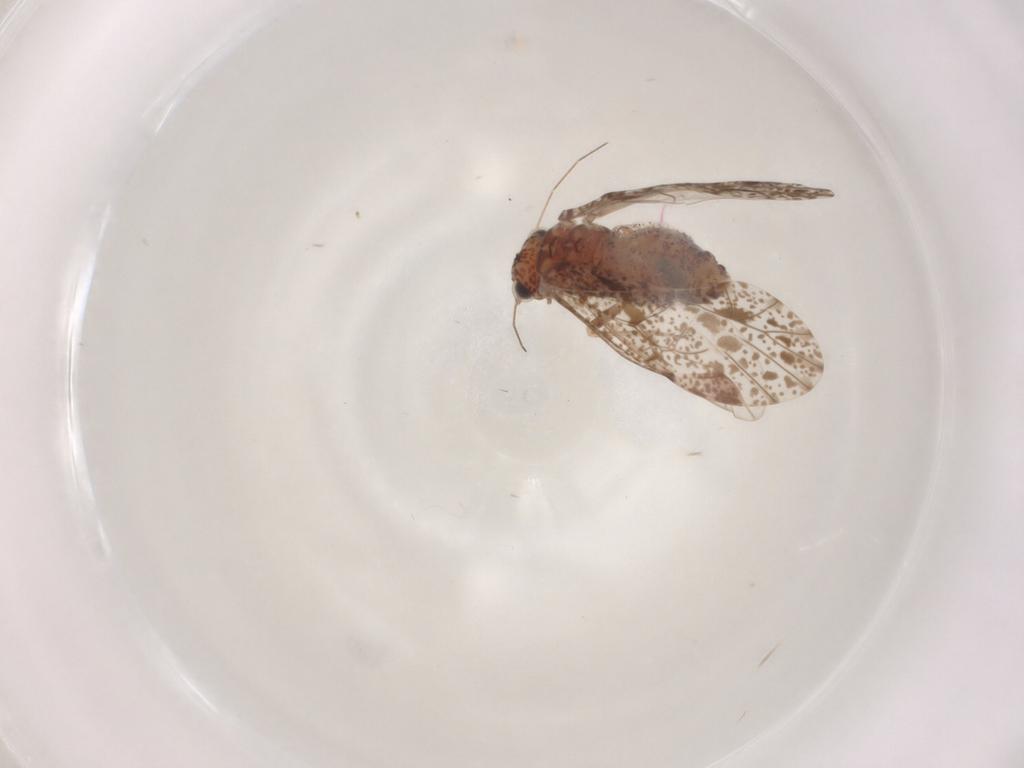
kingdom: Animalia
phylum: Arthropoda
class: Insecta
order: Psocodea
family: Psocidae
